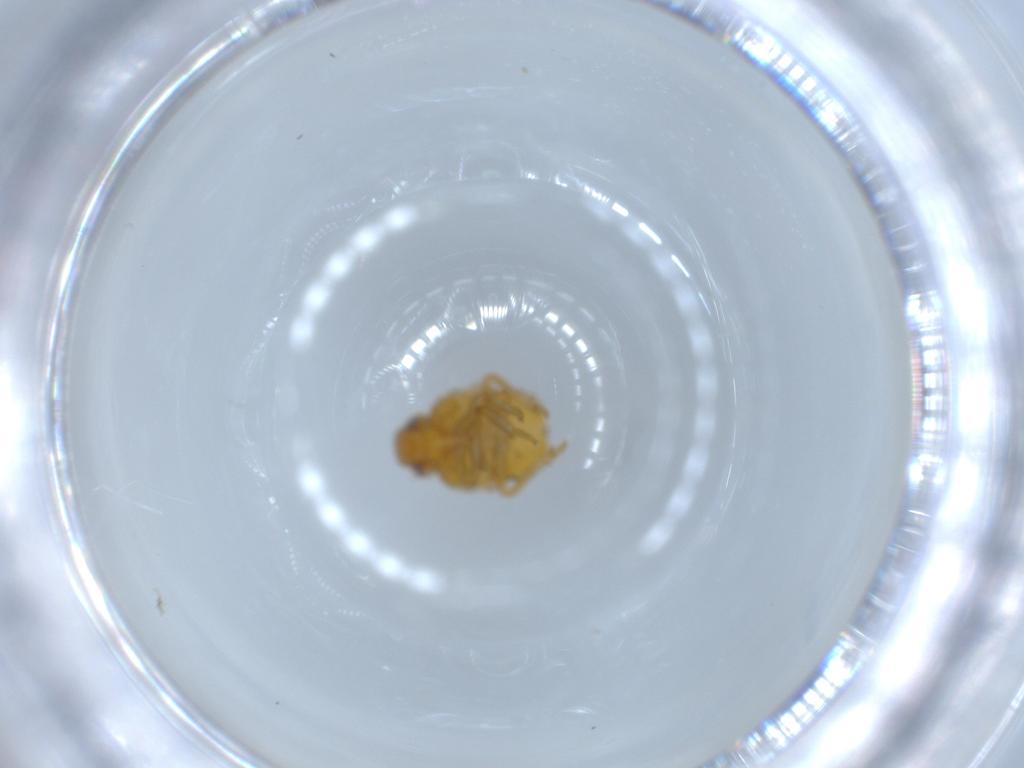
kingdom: Animalia
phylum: Arthropoda
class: Insecta
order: Hemiptera
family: Issidae
